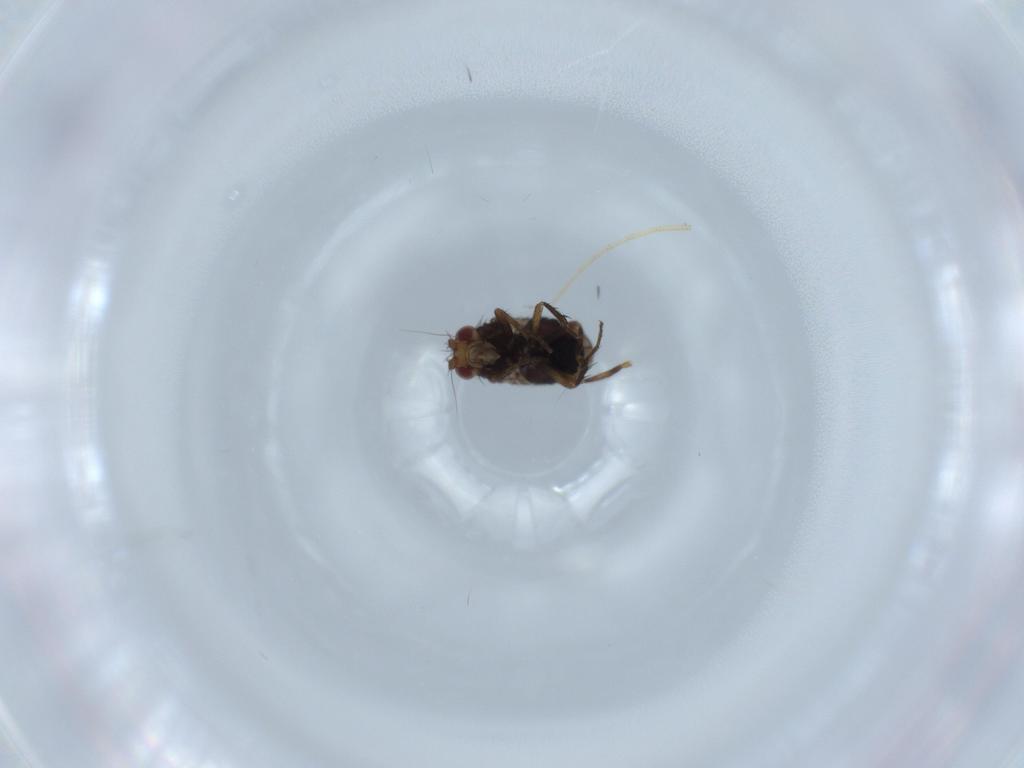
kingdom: Animalia
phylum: Arthropoda
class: Insecta
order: Diptera
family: Sphaeroceridae
